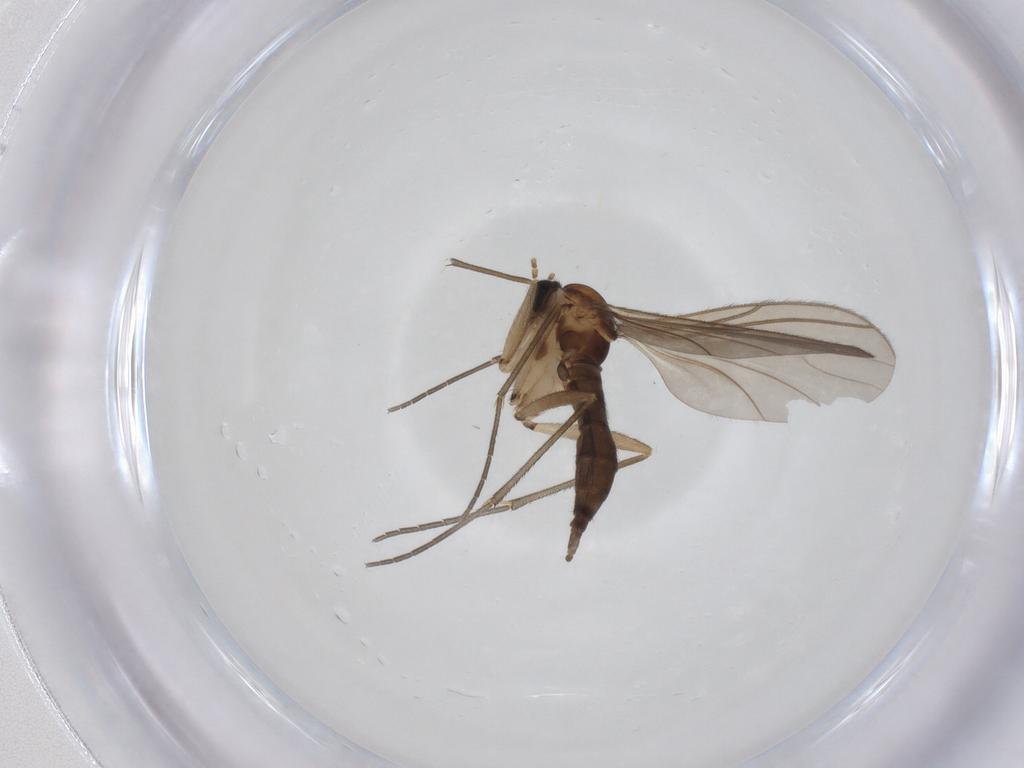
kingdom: Animalia
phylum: Arthropoda
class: Insecta
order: Diptera
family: Sciaridae
